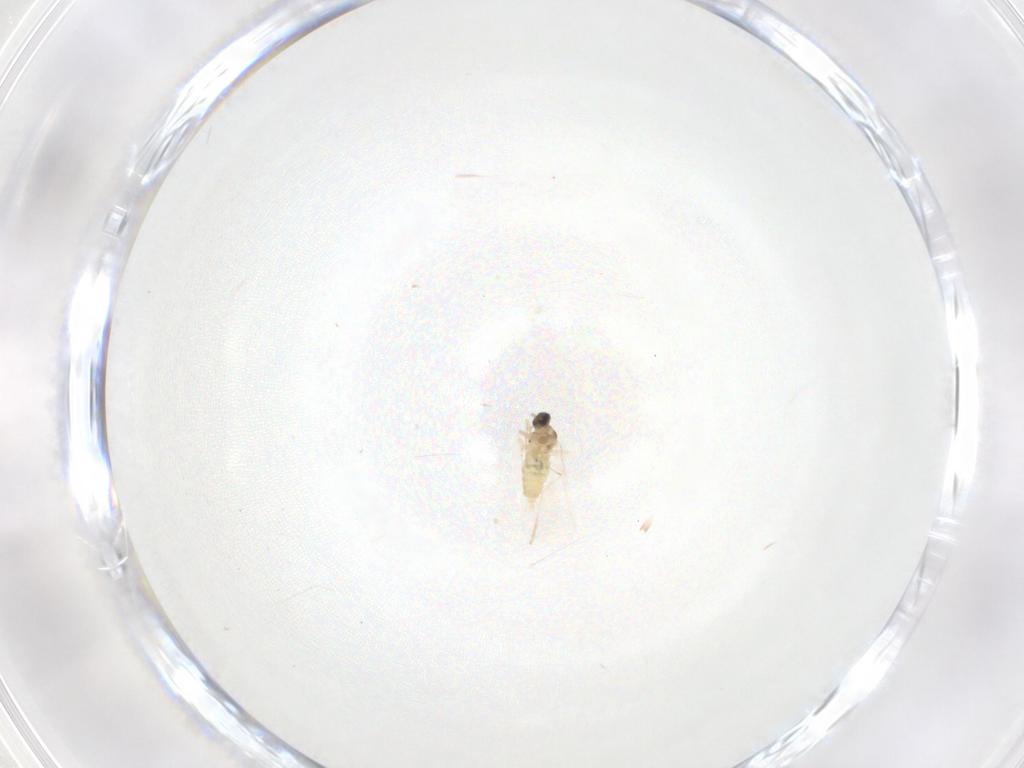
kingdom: Animalia
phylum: Arthropoda
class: Insecta
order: Diptera
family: Cecidomyiidae
